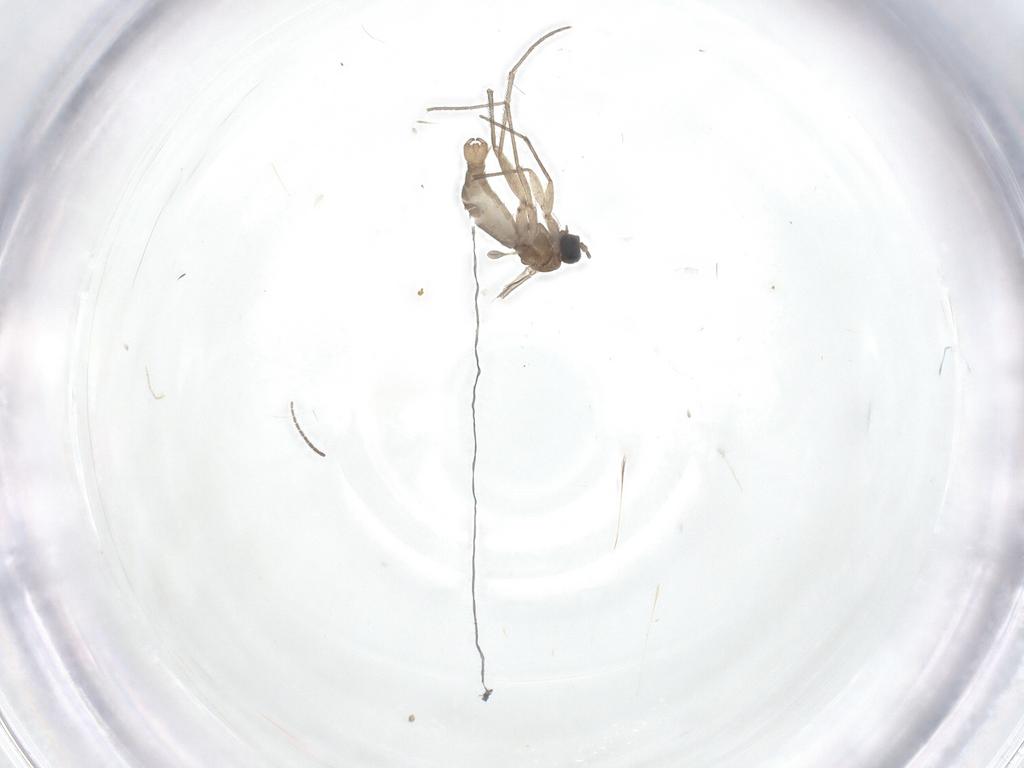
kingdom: Animalia
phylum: Arthropoda
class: Insecta
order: Diptera
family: Sciaridae
